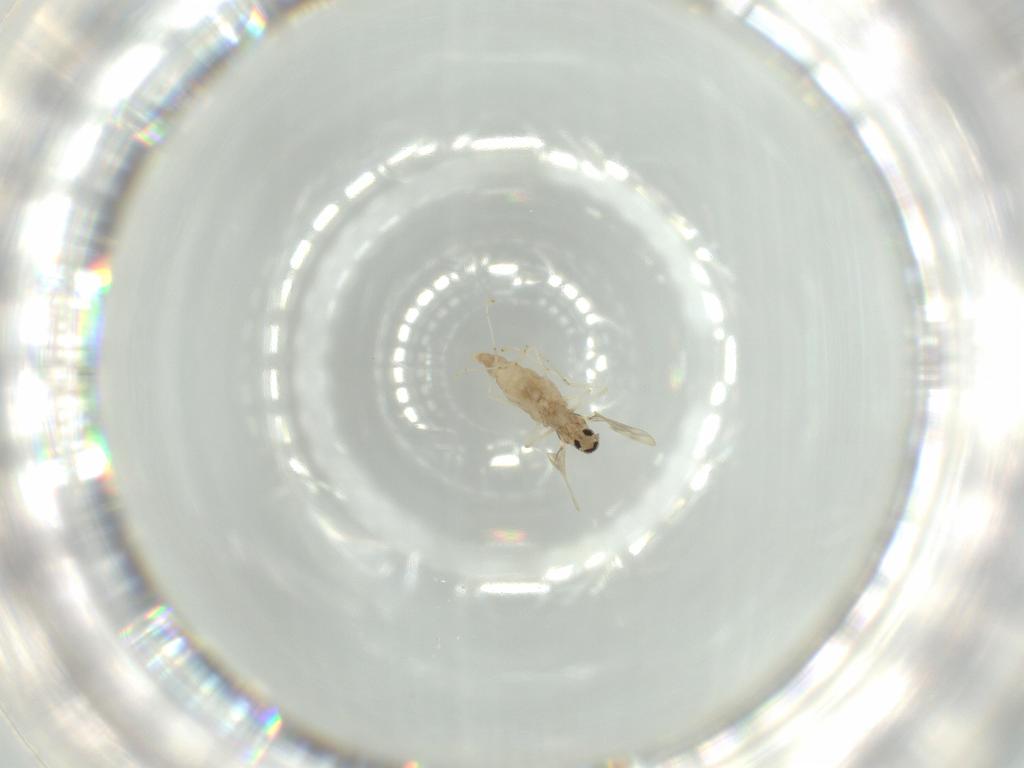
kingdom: Animalia
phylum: Arthropoda
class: Insecta
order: Diptera
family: Cecidomyiidae
